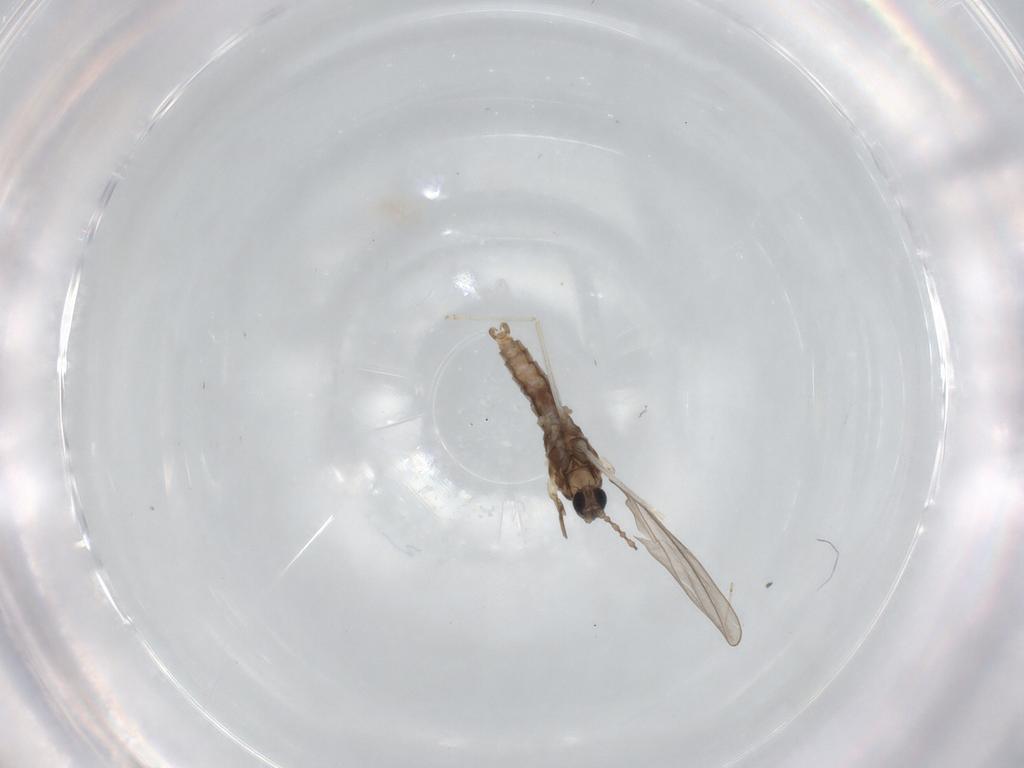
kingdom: Animalia
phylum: Arthropoda
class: Insecta
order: Diptera
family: Cecidomyiidae
